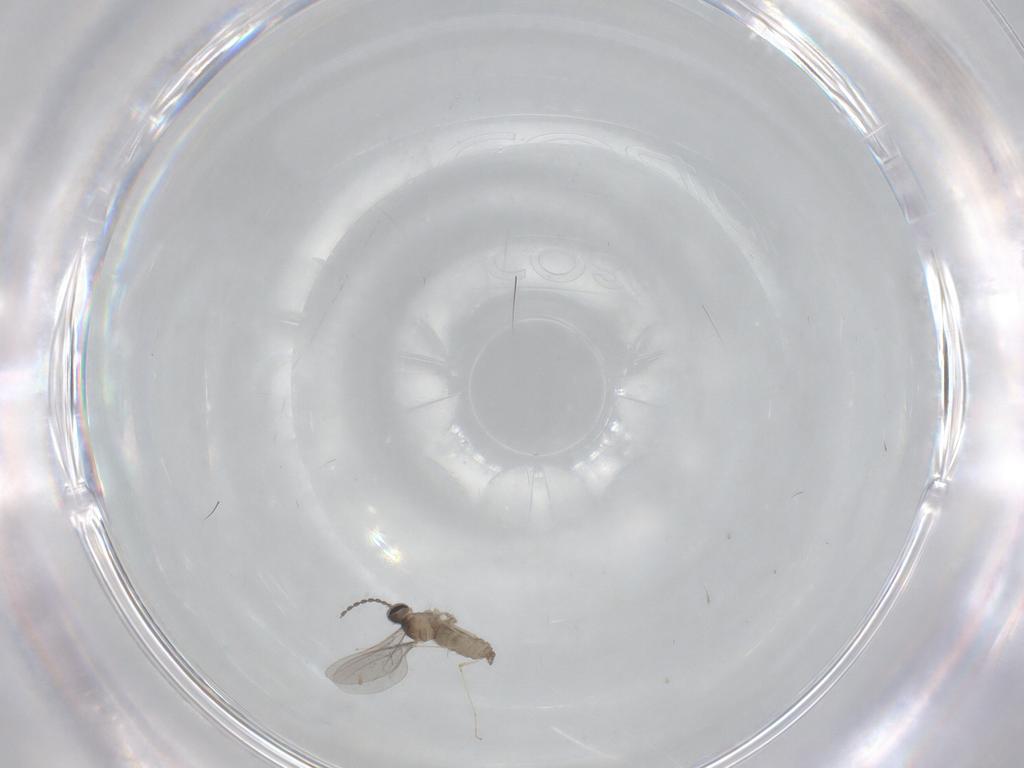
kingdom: Animalia
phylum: Arthropoda
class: Insecta
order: Diptera
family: Chironomidae
